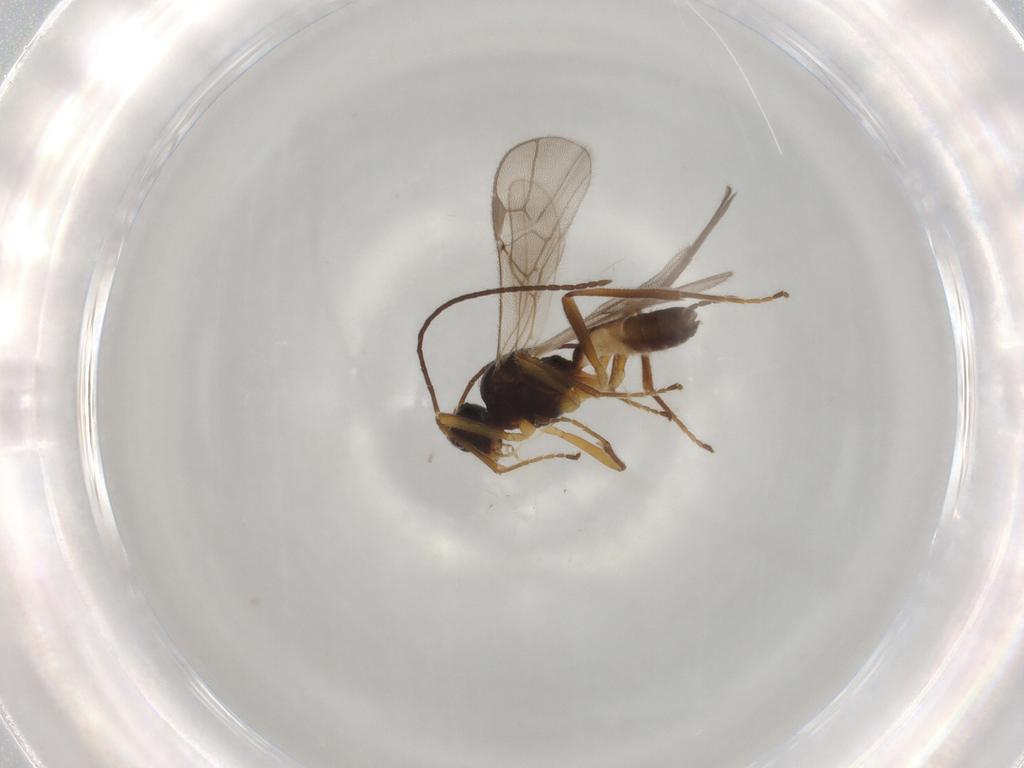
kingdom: Animalia
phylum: Arthropoda
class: Insecta
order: Hymenoptera
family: Braconidae
